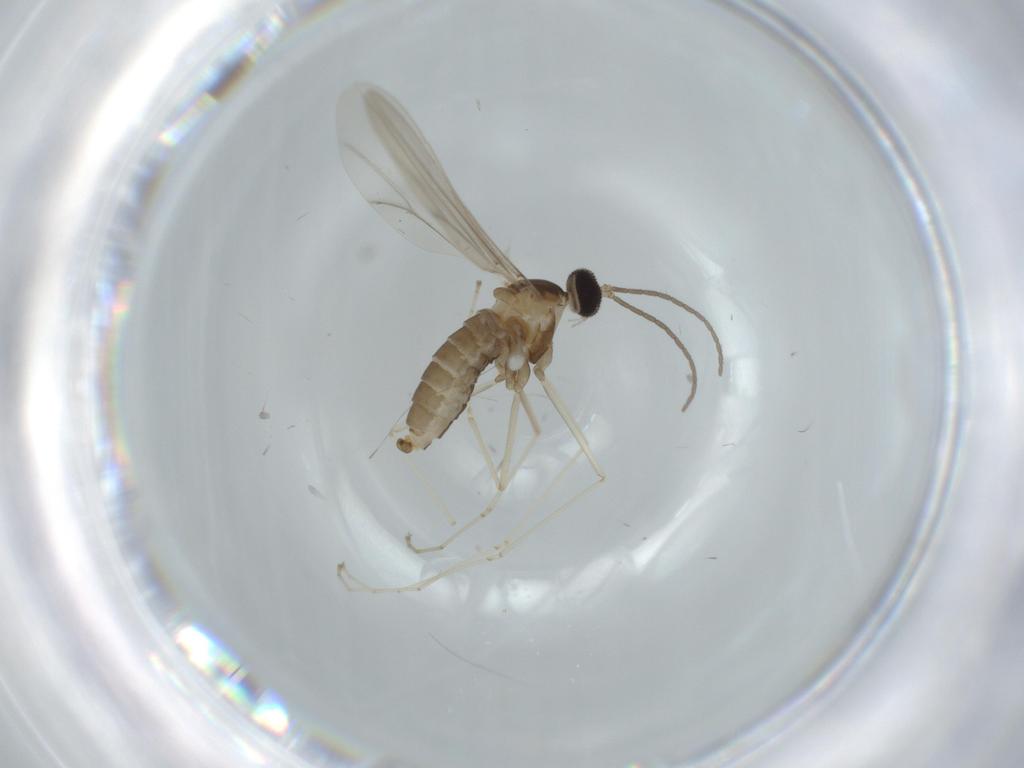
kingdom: Animalia
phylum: Arthropoda
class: Insecta
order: Diptera
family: Cecidomyiidae
